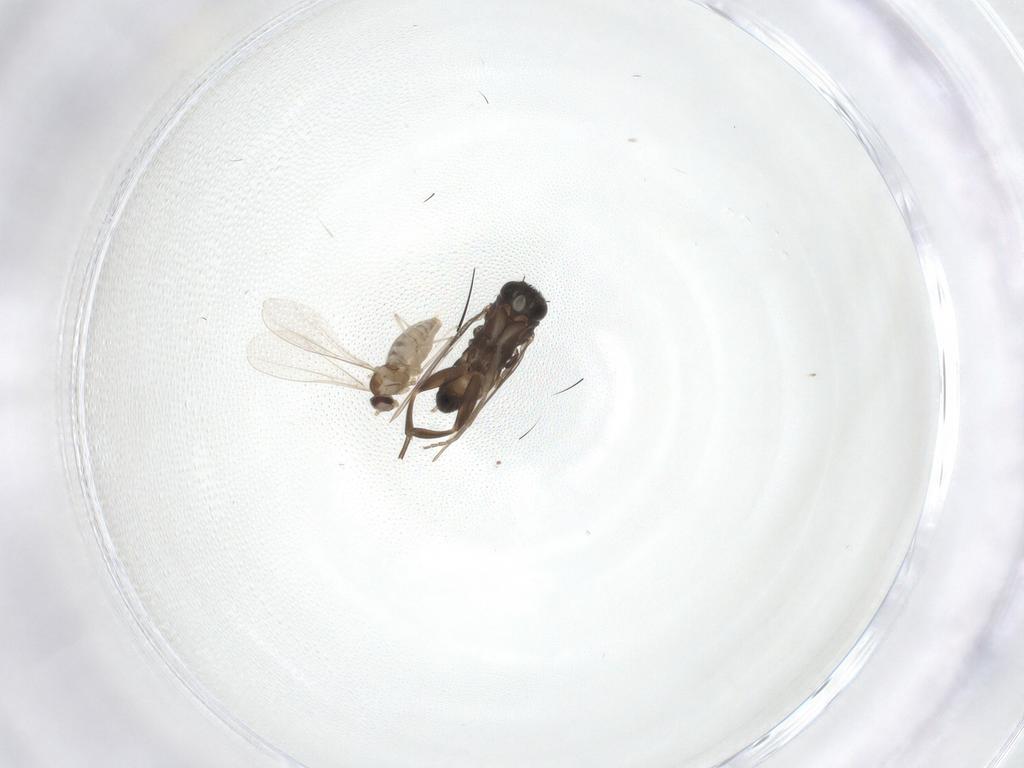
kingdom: Animalia
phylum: Arthropoda
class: Insecta
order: Diptera
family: Cecidomyiidae
